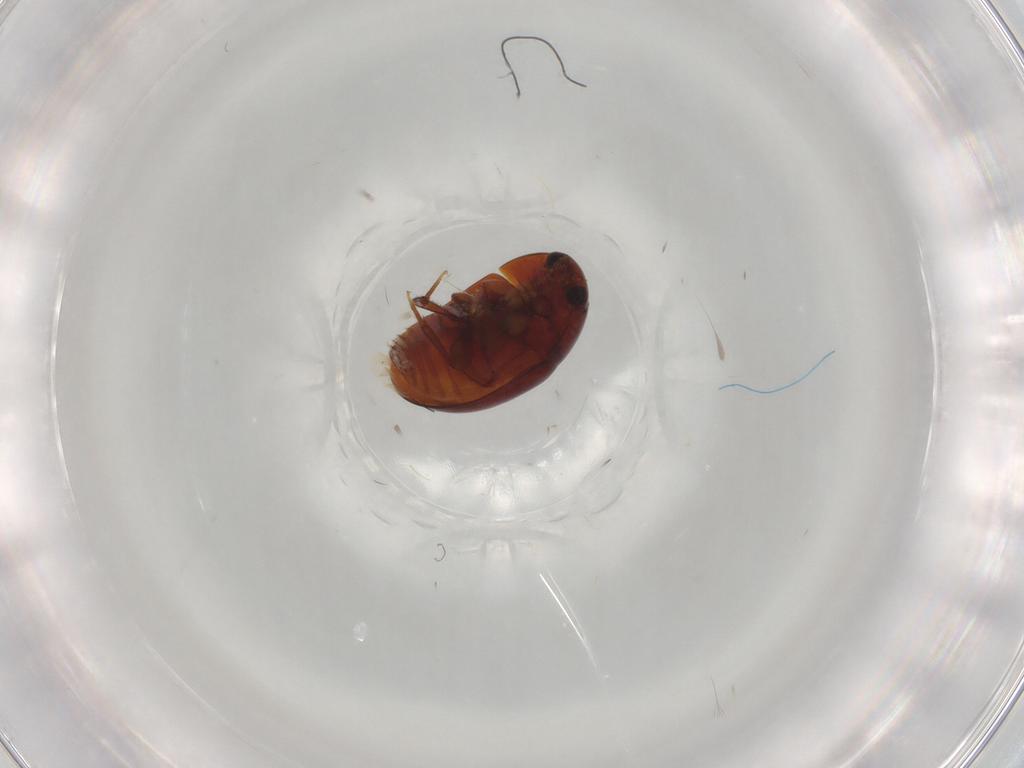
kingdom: Animalia
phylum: Arthropoda
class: Insecta
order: Coleoptera
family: Phalacridae
